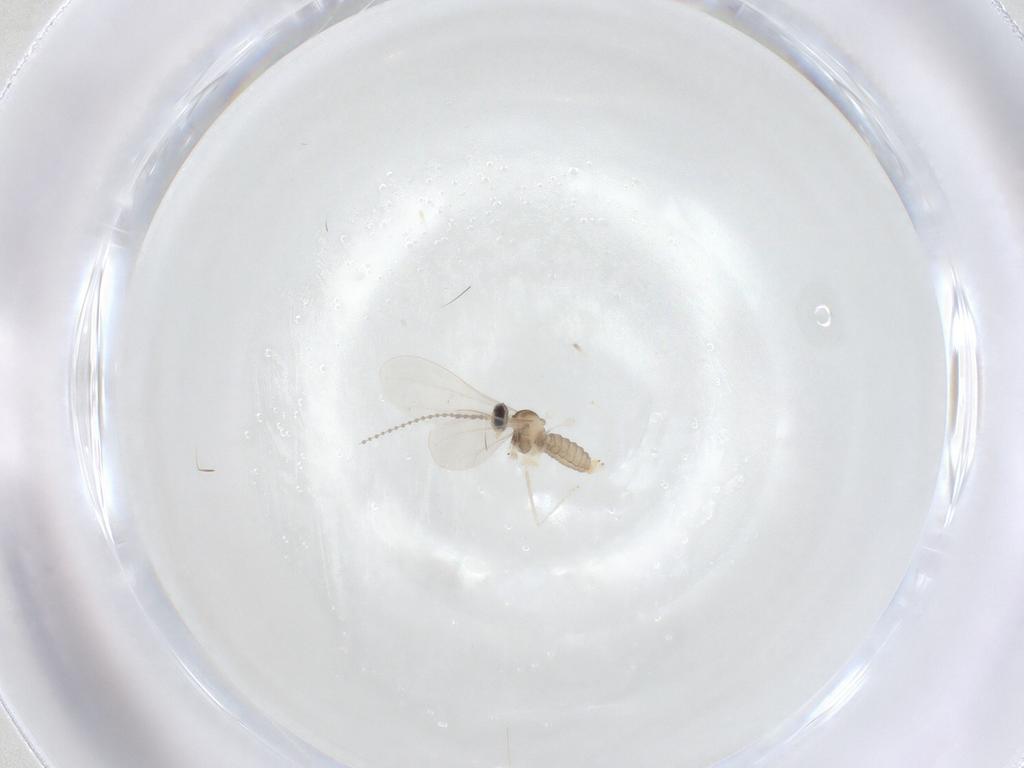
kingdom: Animalia
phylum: Arthropoda
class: Insecta
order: Diptera
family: Cecidomyiidae
